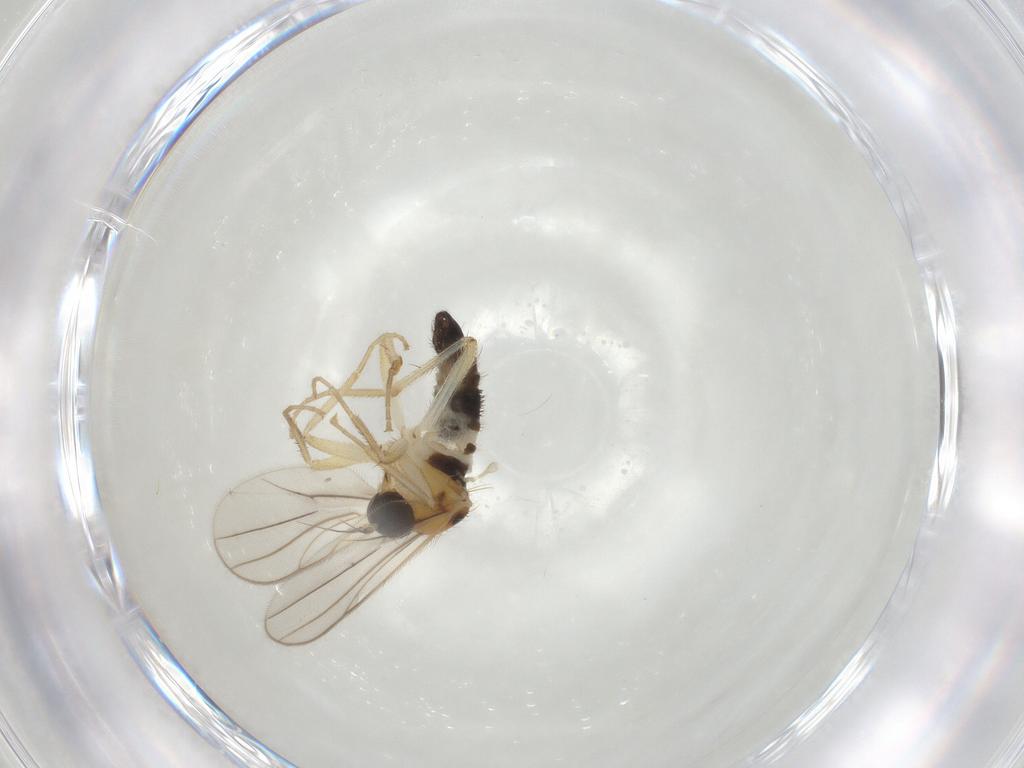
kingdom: Animalia
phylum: Arthropoda
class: Insecta
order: Diptera
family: Hybotidae
